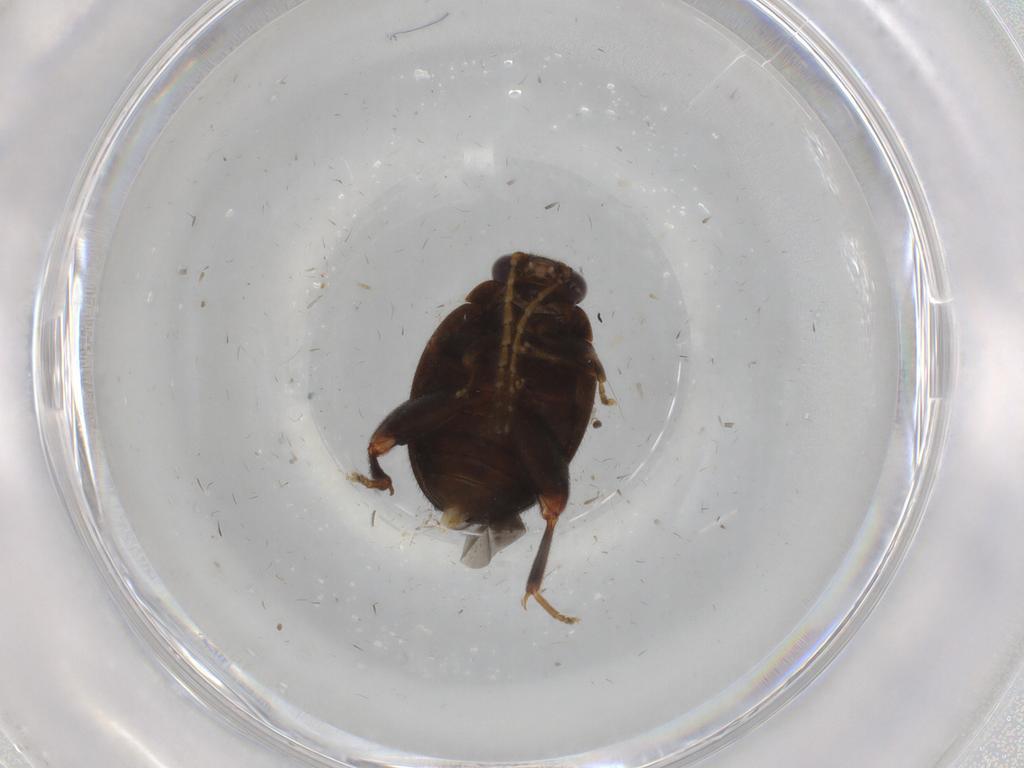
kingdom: Animalia
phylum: Arthropoda
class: Insecta
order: Coleoptera
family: Scirtidae
